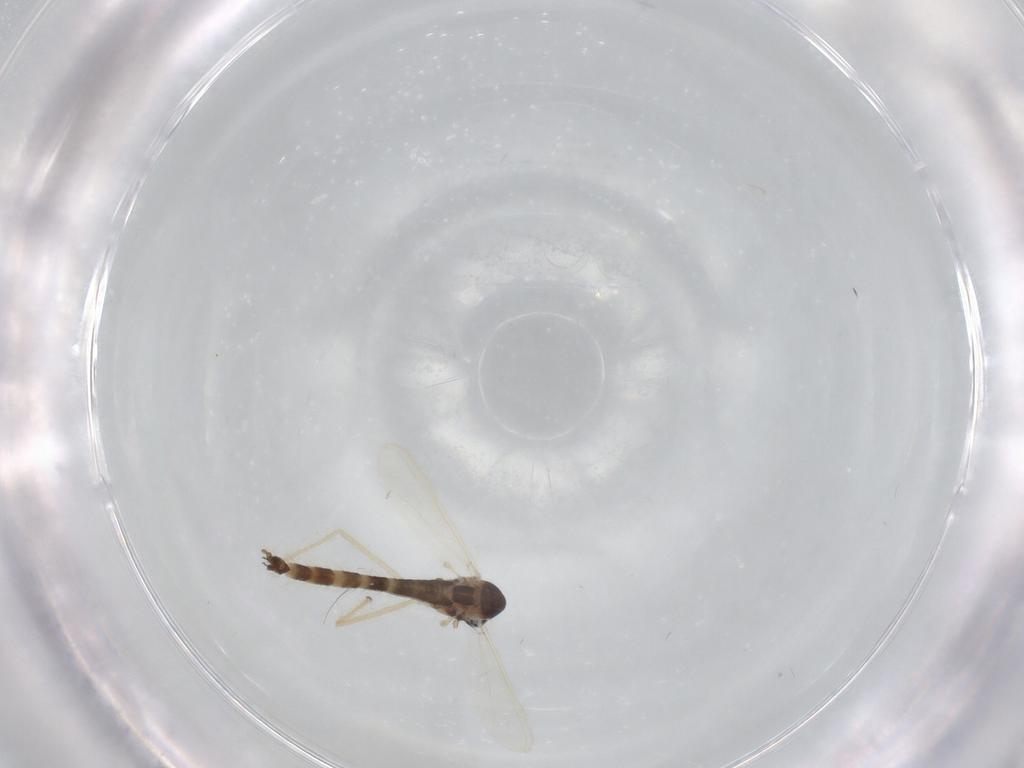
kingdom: Animalia
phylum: Arthropoda
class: Insecta
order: Diptera
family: Chironomidae
